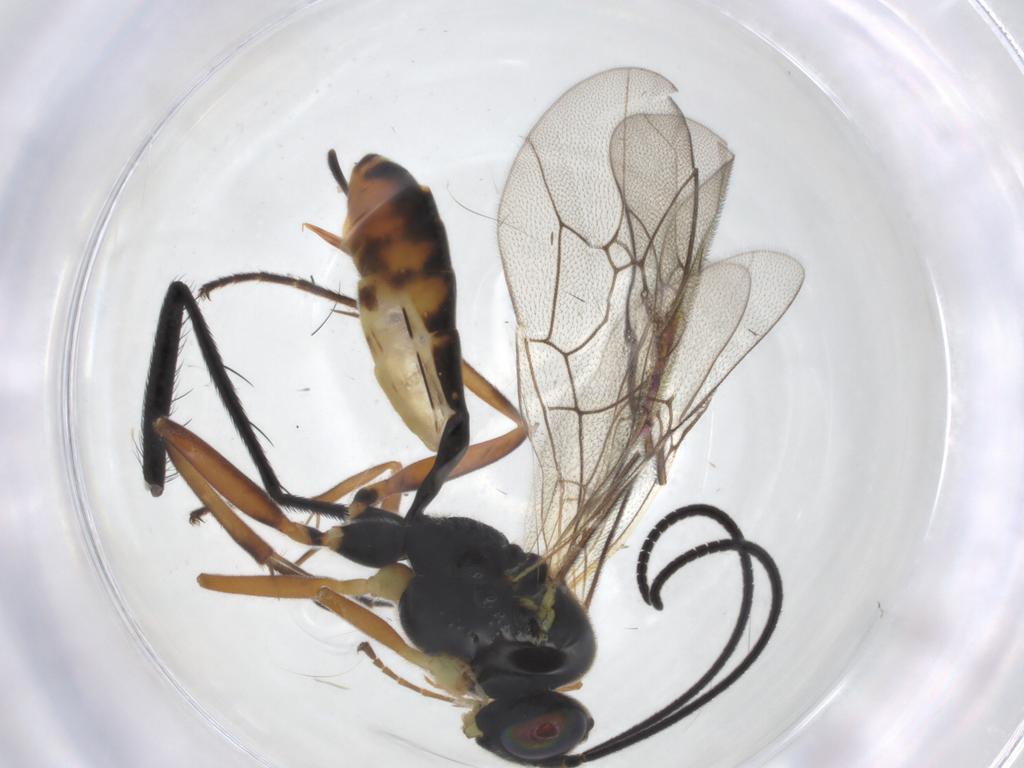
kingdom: Animalia
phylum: Arthropoda
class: Insecta
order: Hymenoptera
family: Ichneumonidae
